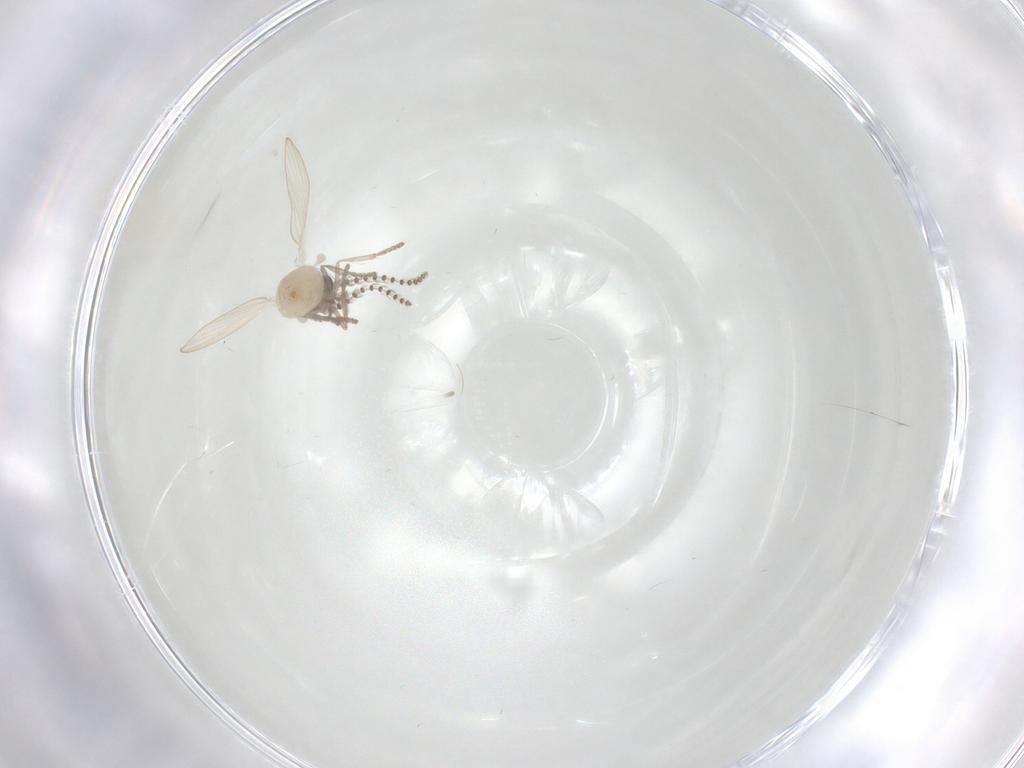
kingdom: Animalia
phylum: Arthropoda
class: Insecta
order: Diptera
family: Psychodidae
